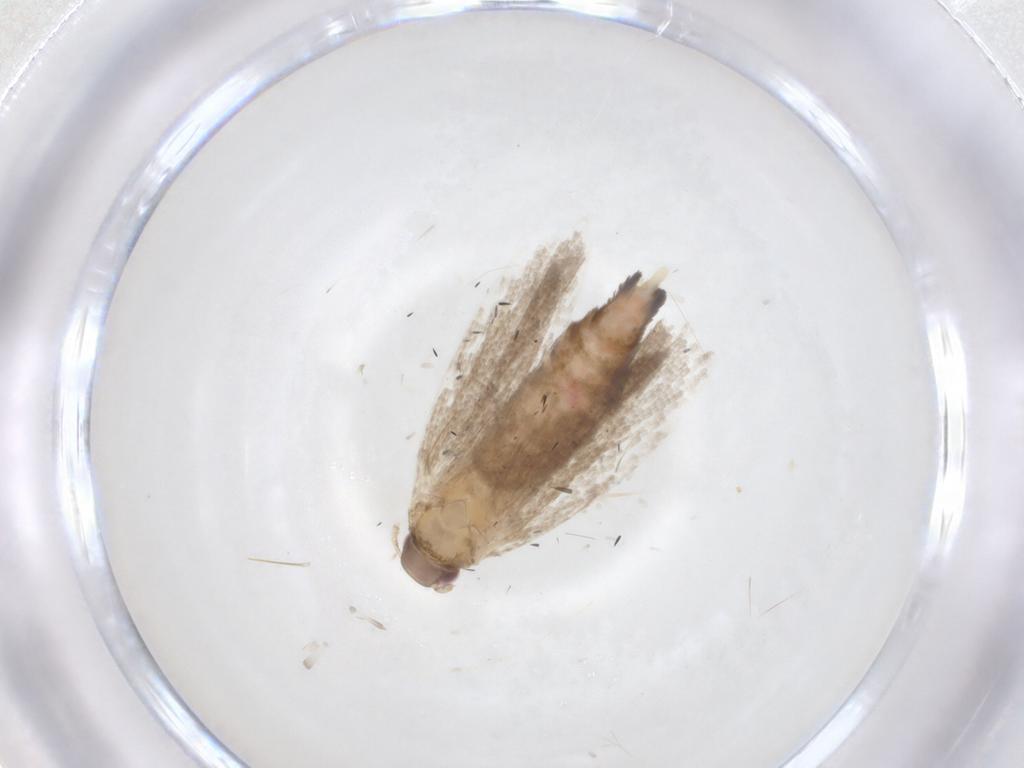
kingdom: Animalia
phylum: Arthropoda
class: Insecta
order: Lepidoptera
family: Gelechiidae
